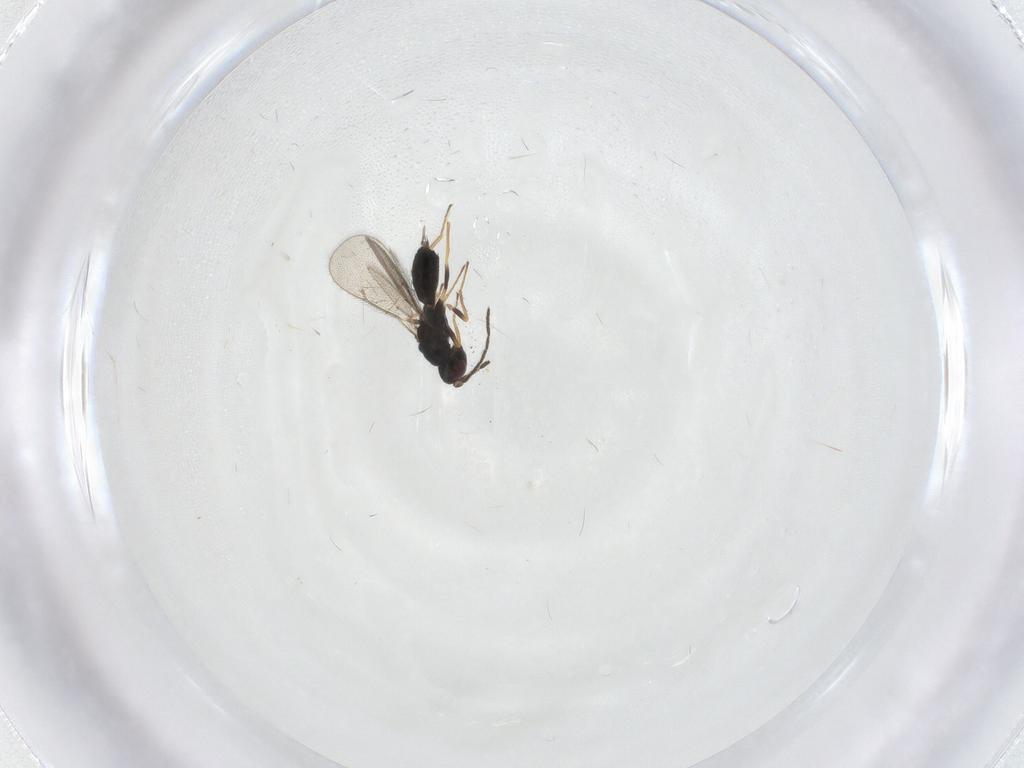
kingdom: Animalia
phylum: Arthropoda
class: Insecta
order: Hymenoptera
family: Eulophidae
